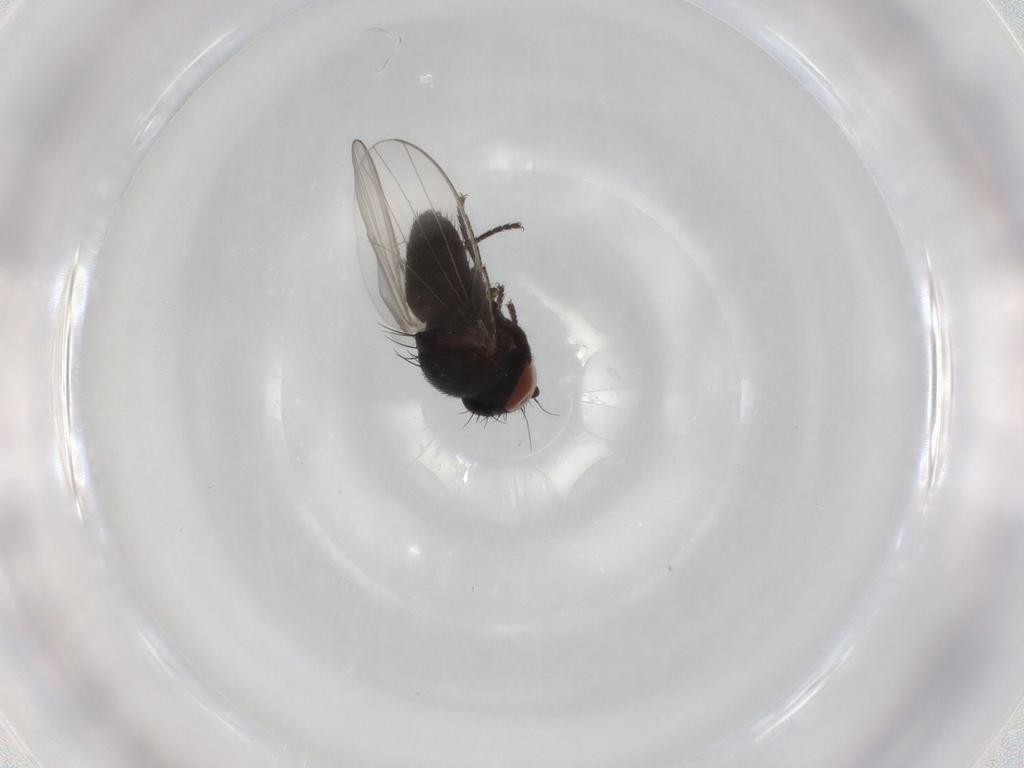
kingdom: Animalia
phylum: Arthropoda
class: Insecta
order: Diptera
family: Milichiidae
